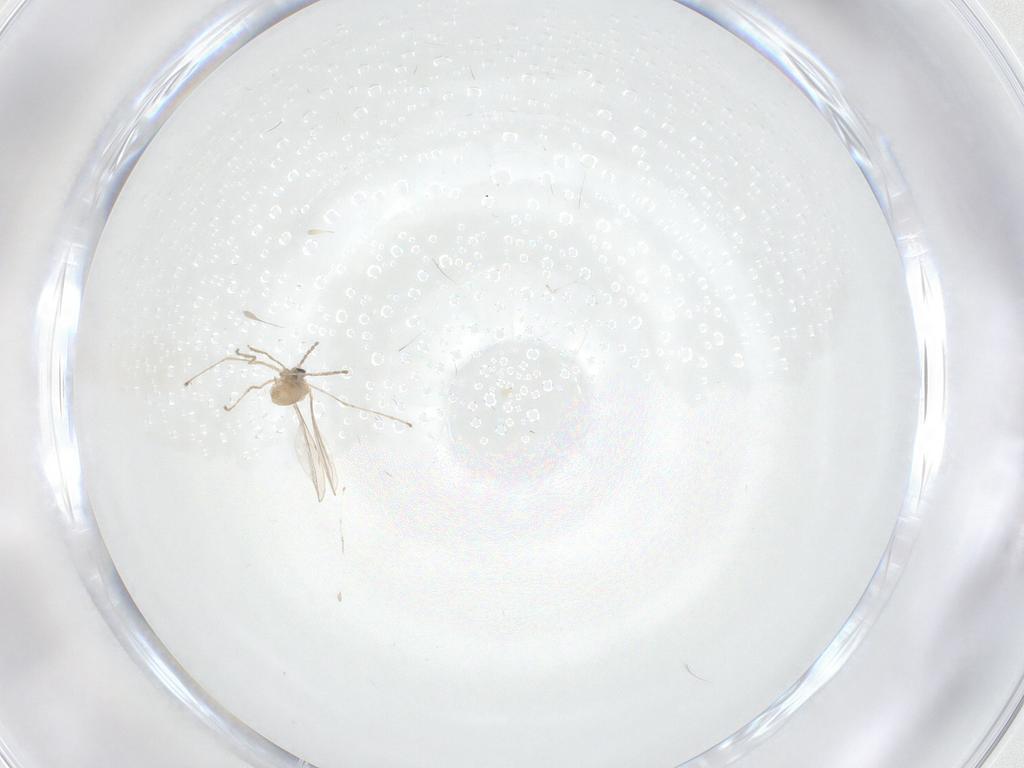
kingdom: Animalia
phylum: Arthropoda
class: Insecta
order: Diptera
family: Cecidomyiidae
